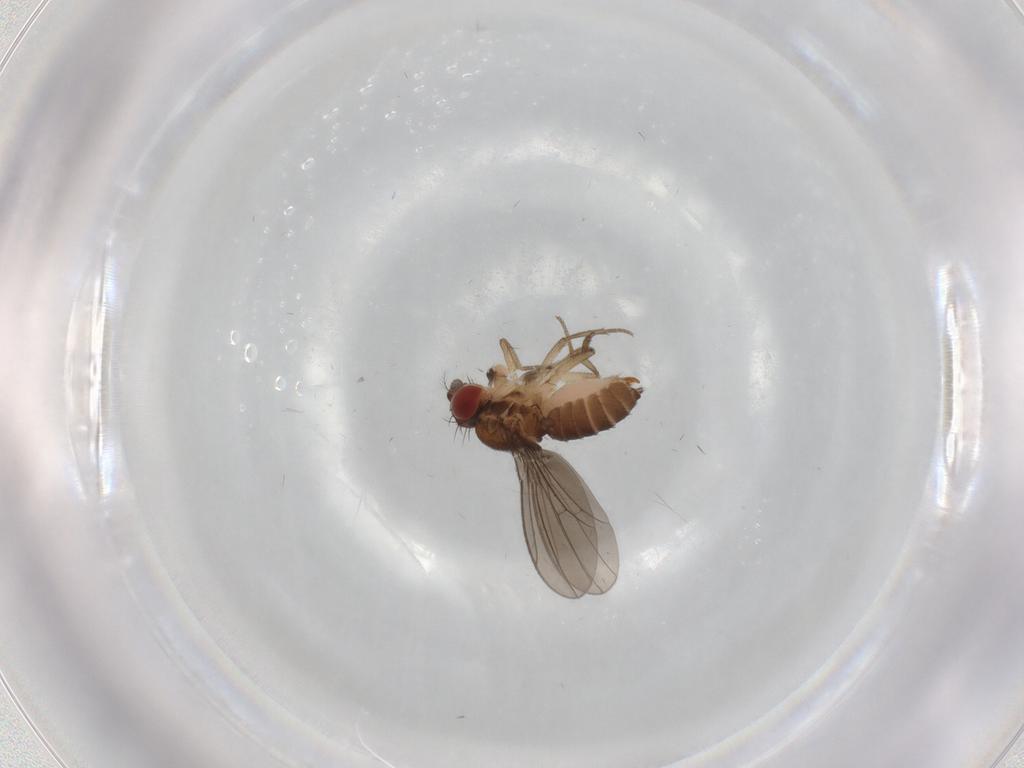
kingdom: Animalia
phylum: Arthropoda
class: Insecta
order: Diptera
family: Drosophilidae
